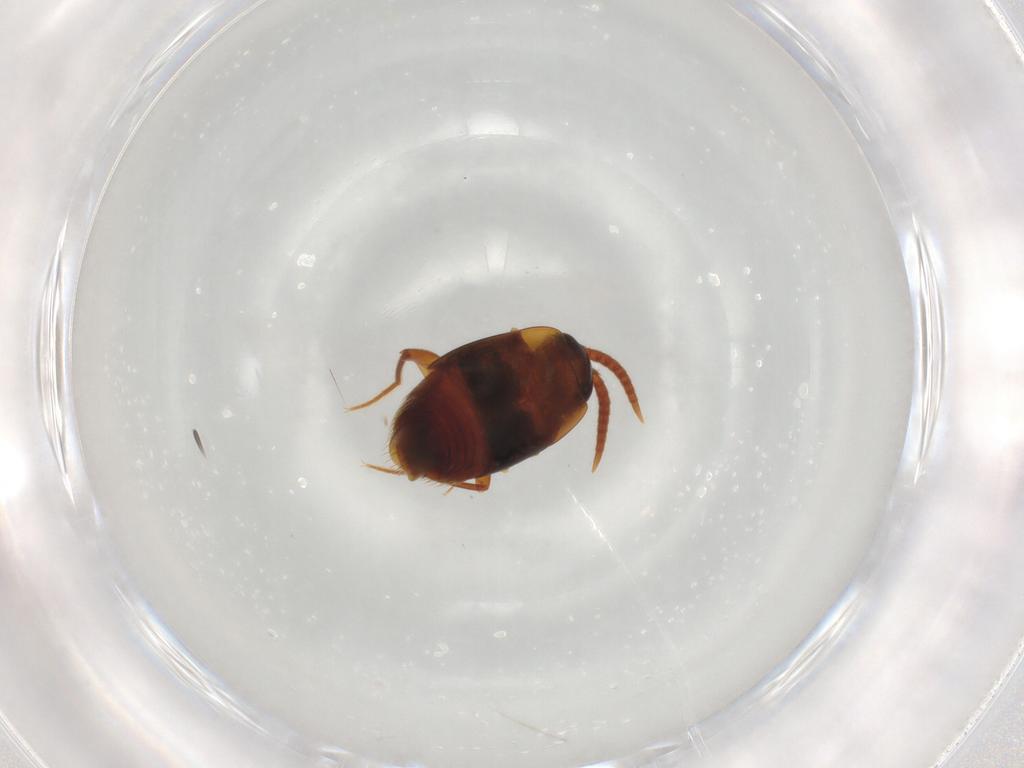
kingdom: Animalia
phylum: Arthropoda
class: Insecta
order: Coleoptera
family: Staphylinidae
